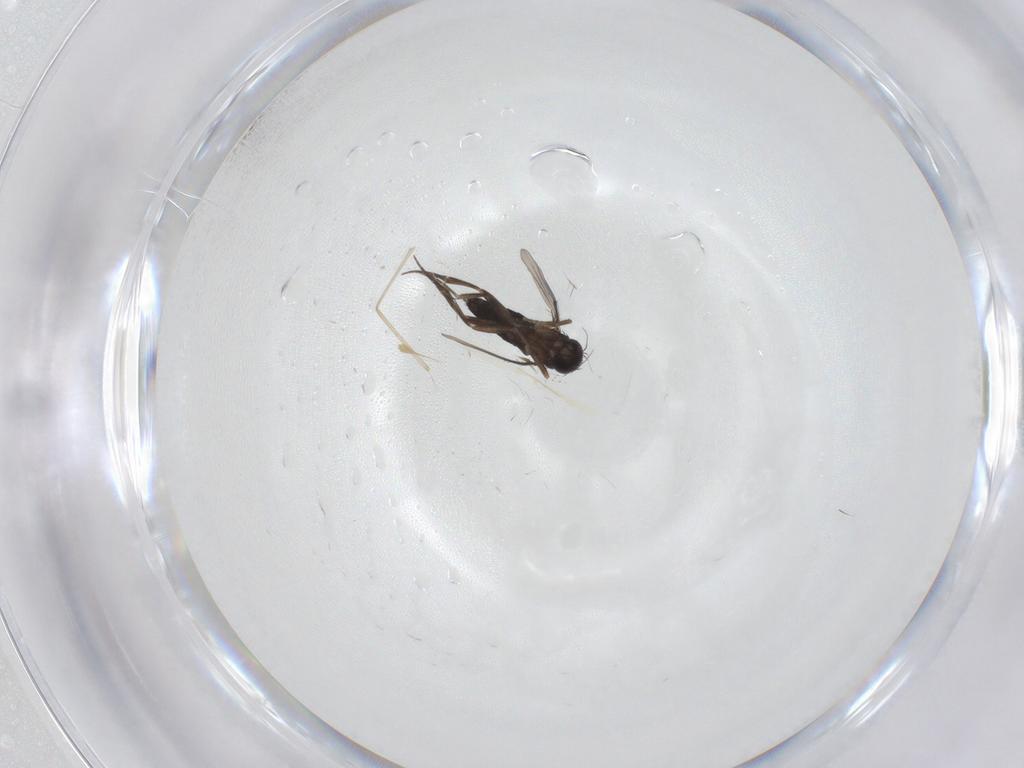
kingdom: Animalia
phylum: Arthropoda
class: Insecta
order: Diptera
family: Phoridae
